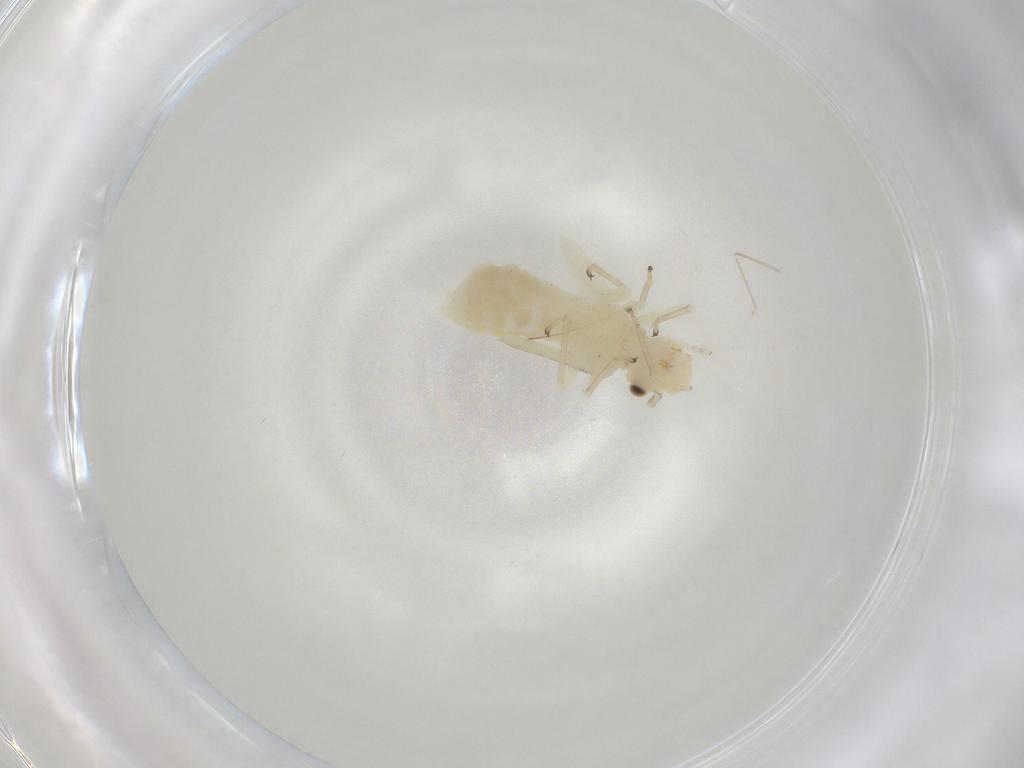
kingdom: Animalia
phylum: Arthropoda
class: Insecta
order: Psocodea
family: Caeciliusidae
